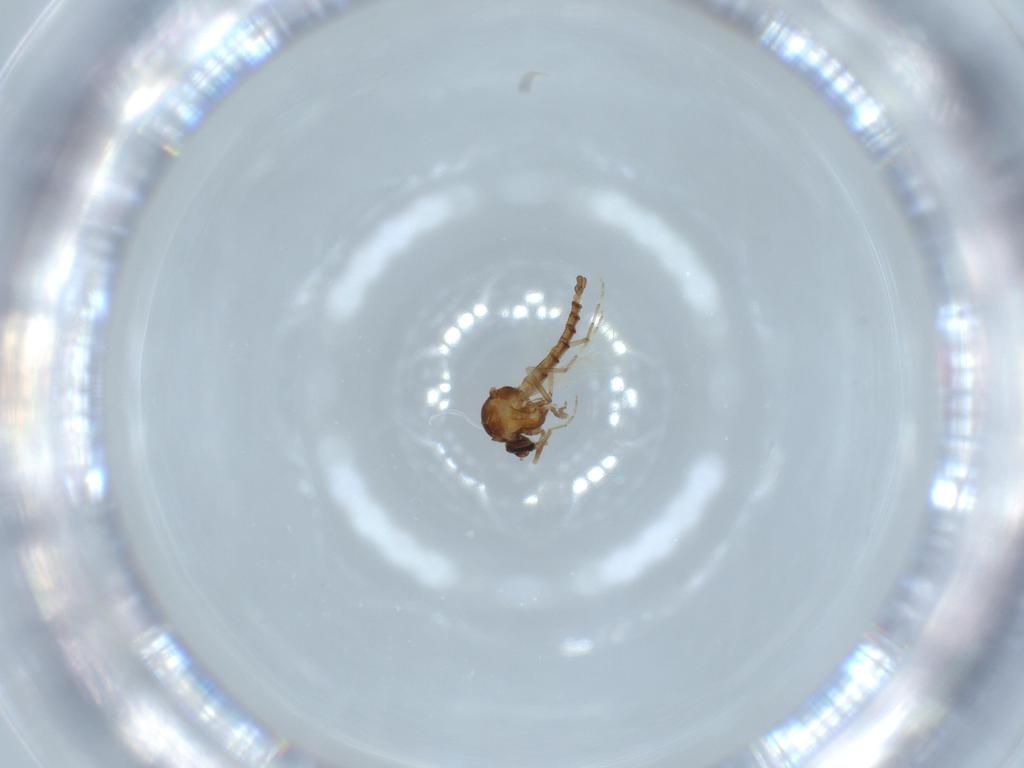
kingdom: Animalia
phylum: Arthropoda
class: Insecta
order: Diptera
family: Ceratopogonidae
